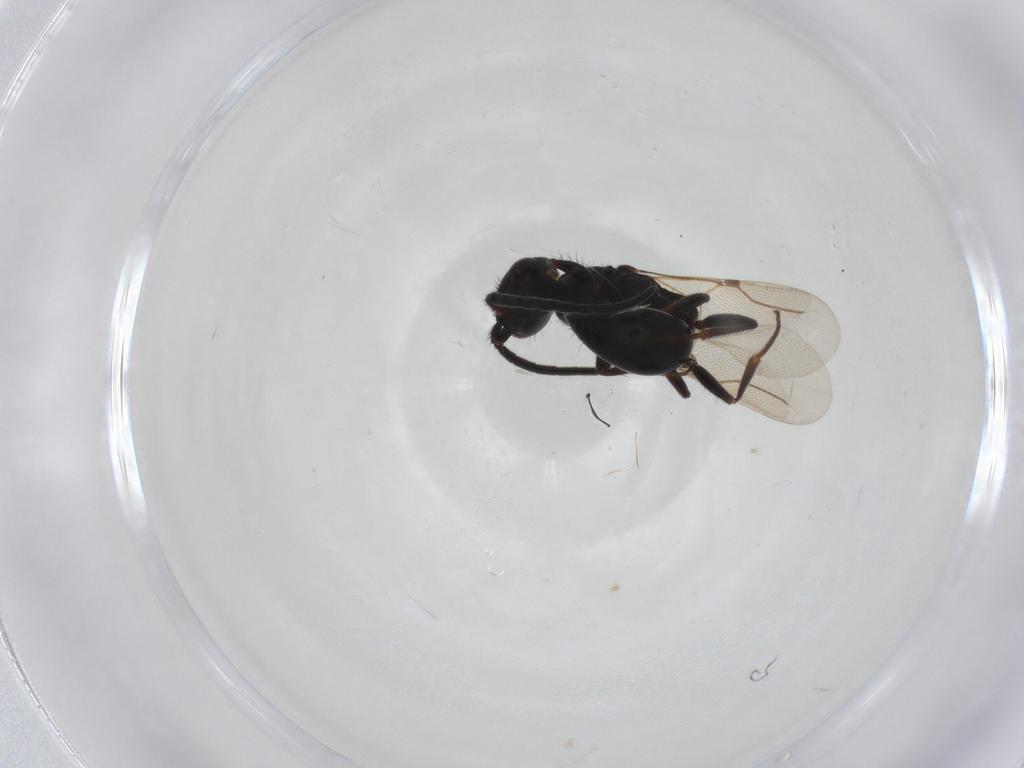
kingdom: Animalia
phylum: Arthropoda
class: Insecta
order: Hymenoptera
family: Bethylidae
